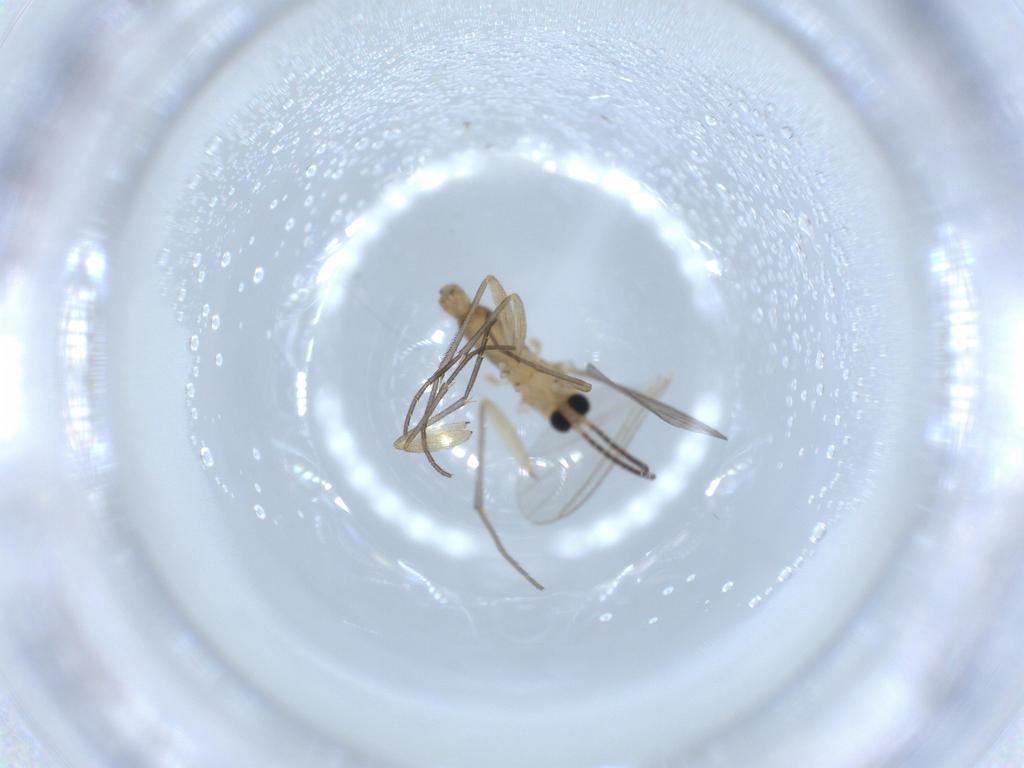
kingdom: Animalia
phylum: Arthropoda
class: Insecta
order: Diptera
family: Sciaridae
